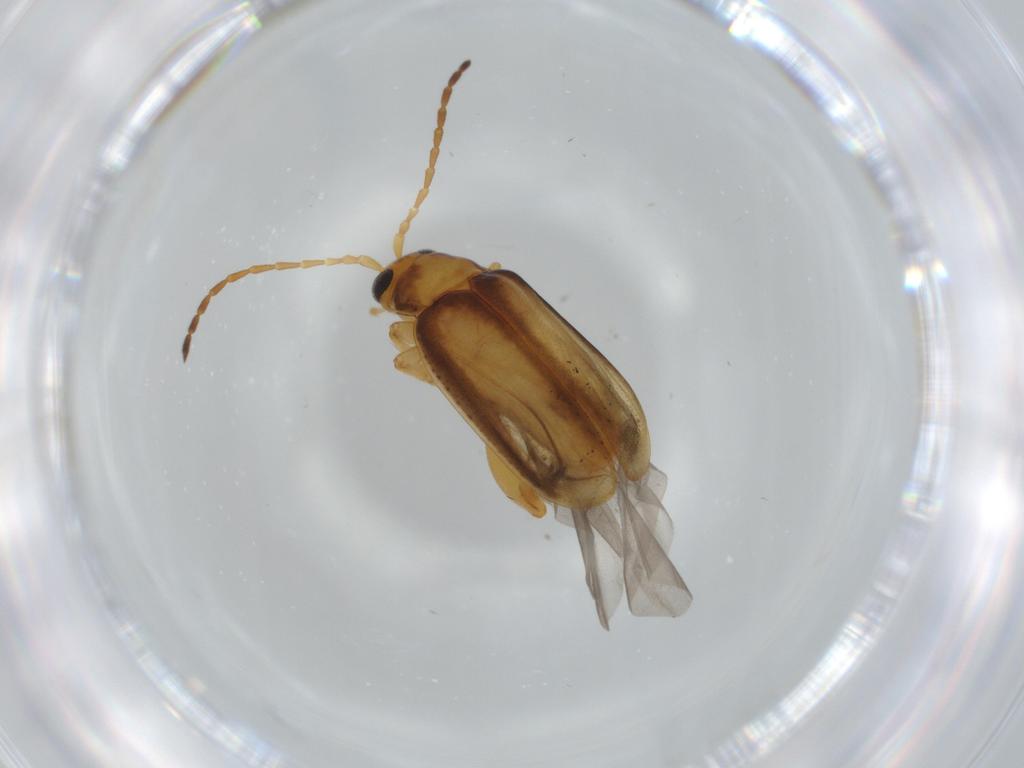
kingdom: Animalia
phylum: Arthropoda
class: Insecta
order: Coleoptera
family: Chrysomelidae
